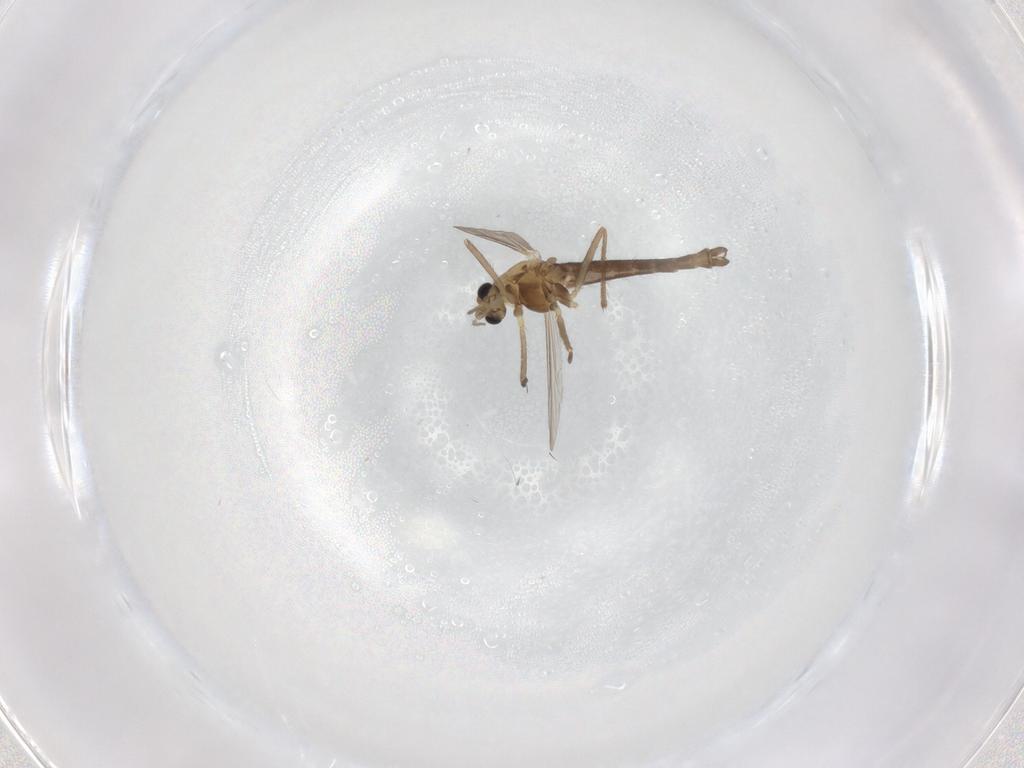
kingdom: Animalia
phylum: Arthropoda
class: Insecta
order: Diptera
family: Chironomidae
